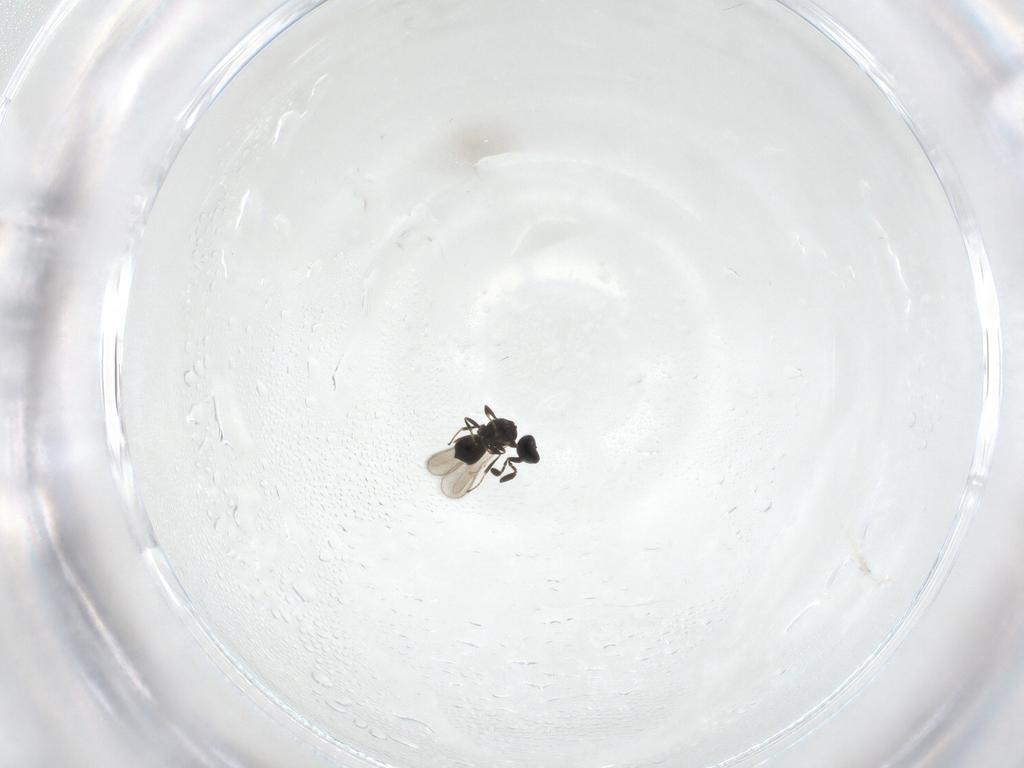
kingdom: Animalia
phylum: Arthropoda
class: Insecta
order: Hymenoptera
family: Scelionidae
